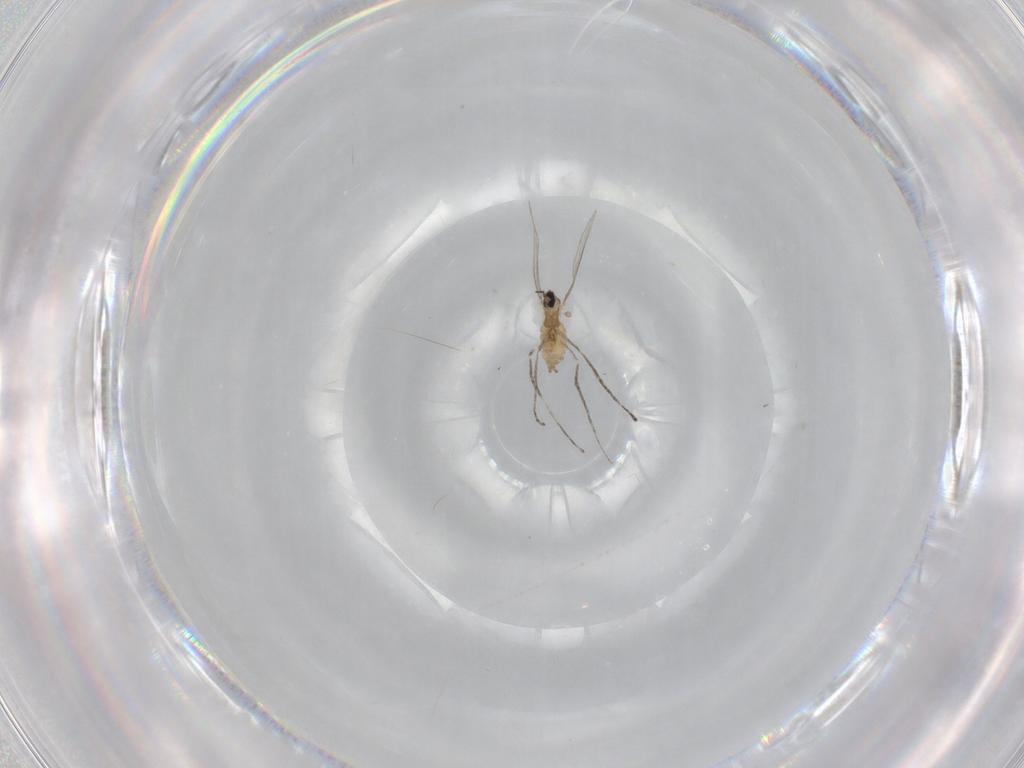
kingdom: Animalia
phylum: Arthropoda
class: Insecta
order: Diptera
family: Cecidomyiidae
